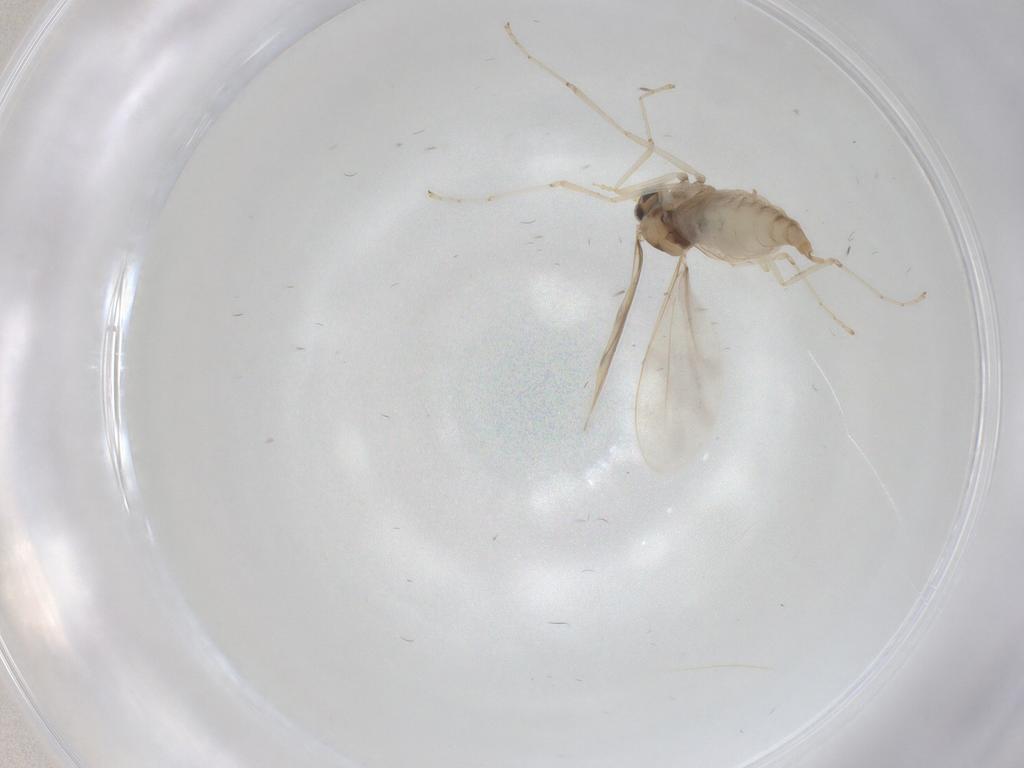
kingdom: Animalia
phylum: Arthropoda
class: Insecta
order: Diptera
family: Cecidomyiidae
